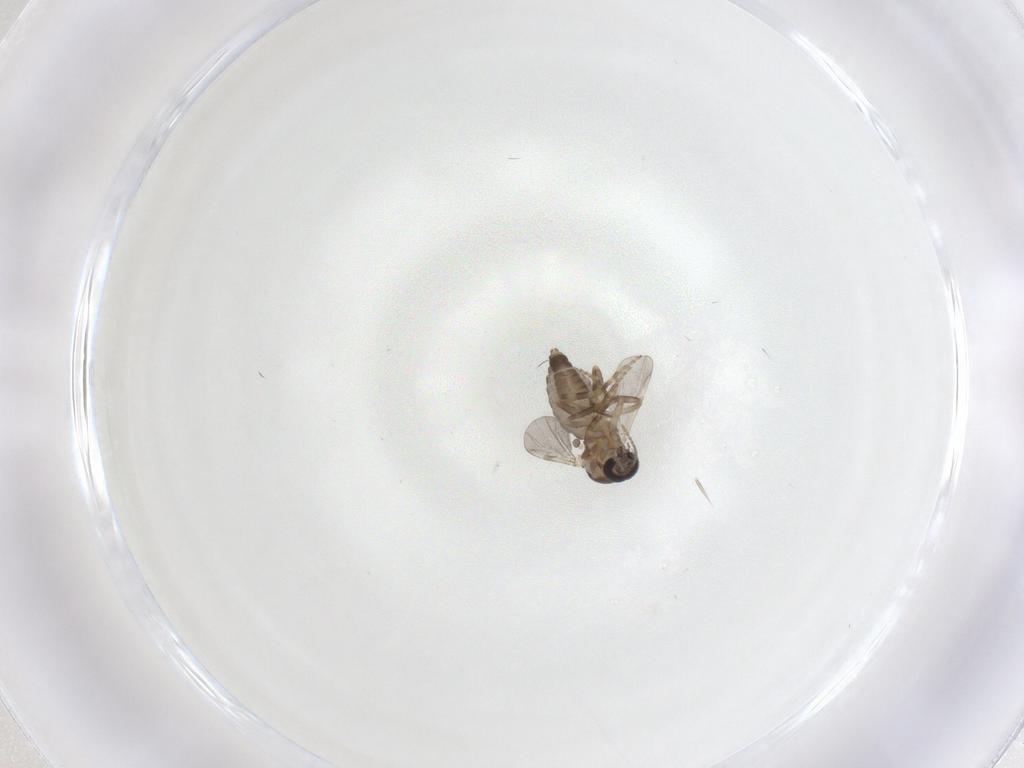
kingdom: Animalia
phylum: Arthropoda
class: Insecta
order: Diptera
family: Ceratopogonidae
